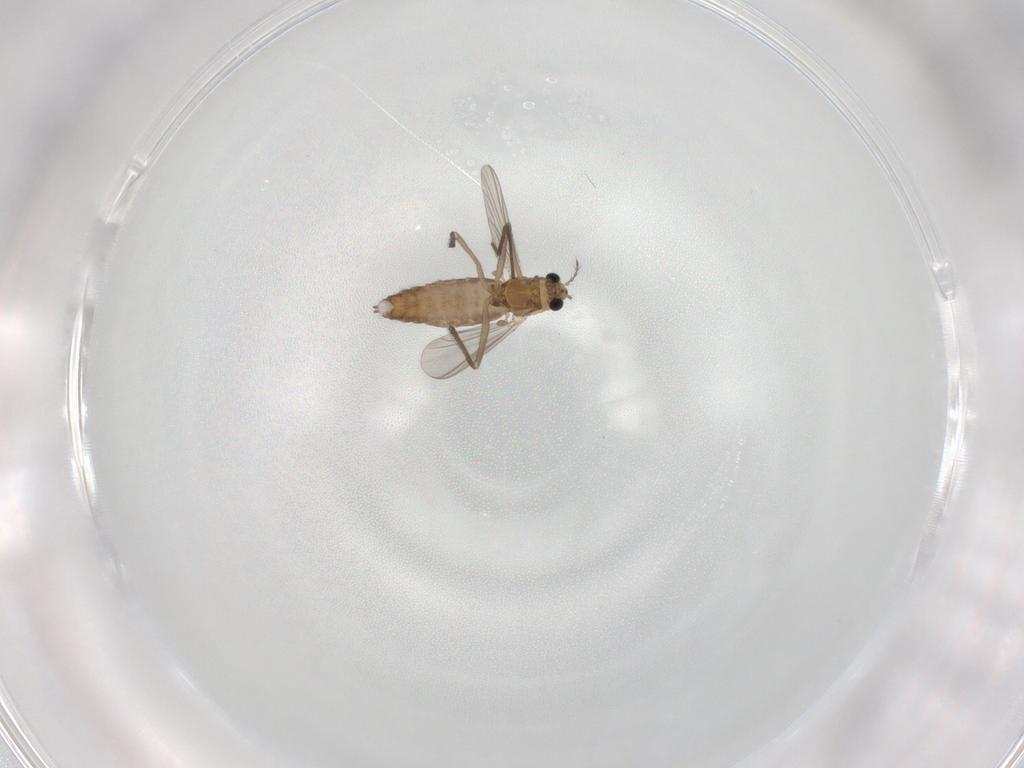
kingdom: Animalia
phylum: Arthropoda
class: Insecta
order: Diptera
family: Chironomidae
